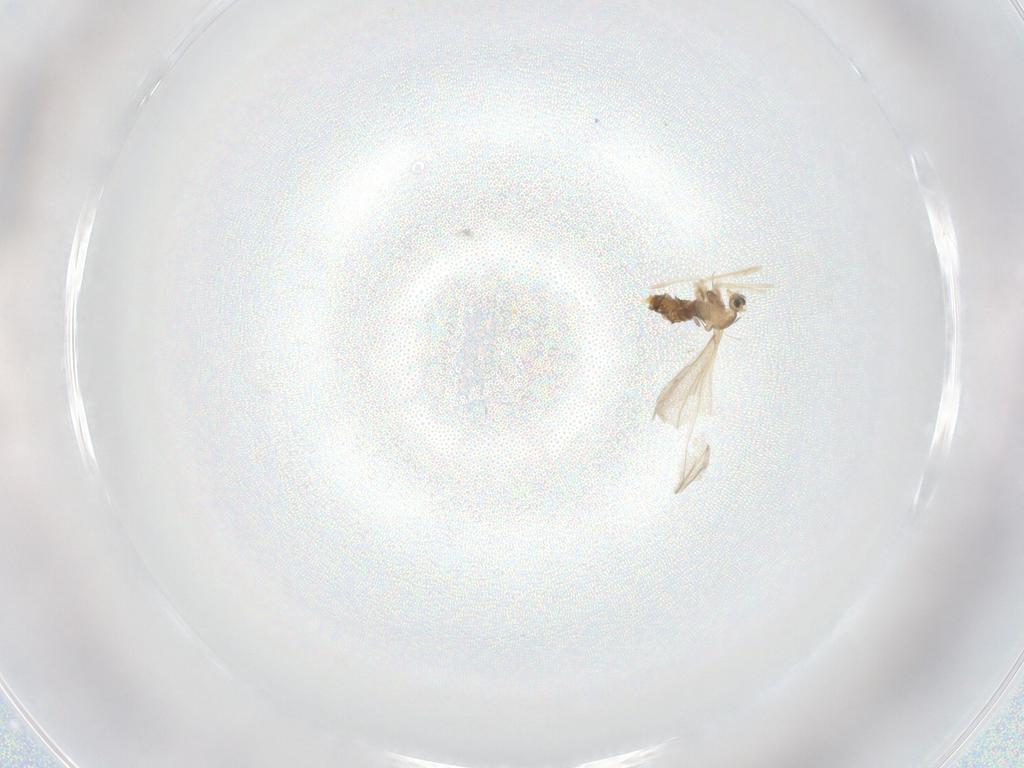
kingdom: Animalia
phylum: Arthropoda
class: Insecta
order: Diptera
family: Cecidomyiidae
